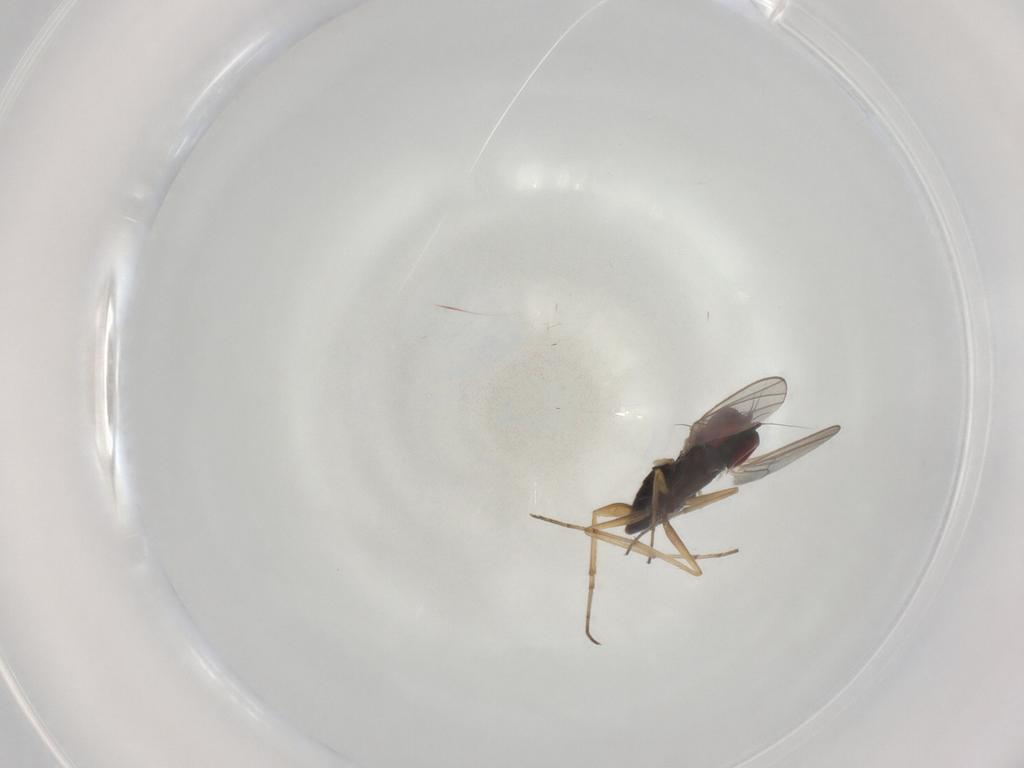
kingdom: Animalia
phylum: Arthropoda
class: Insecta
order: Diptera
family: Dolichopodidae
